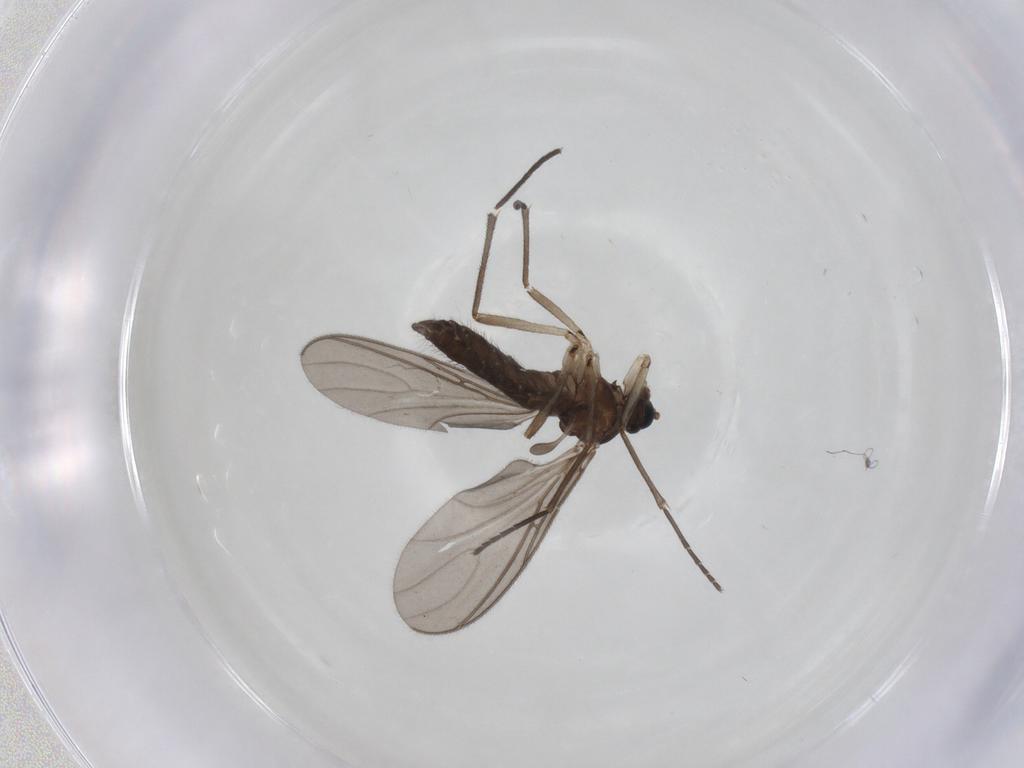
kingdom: Animalia
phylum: Arthropoda
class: Insecta
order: Diptera
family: Sciaridae
